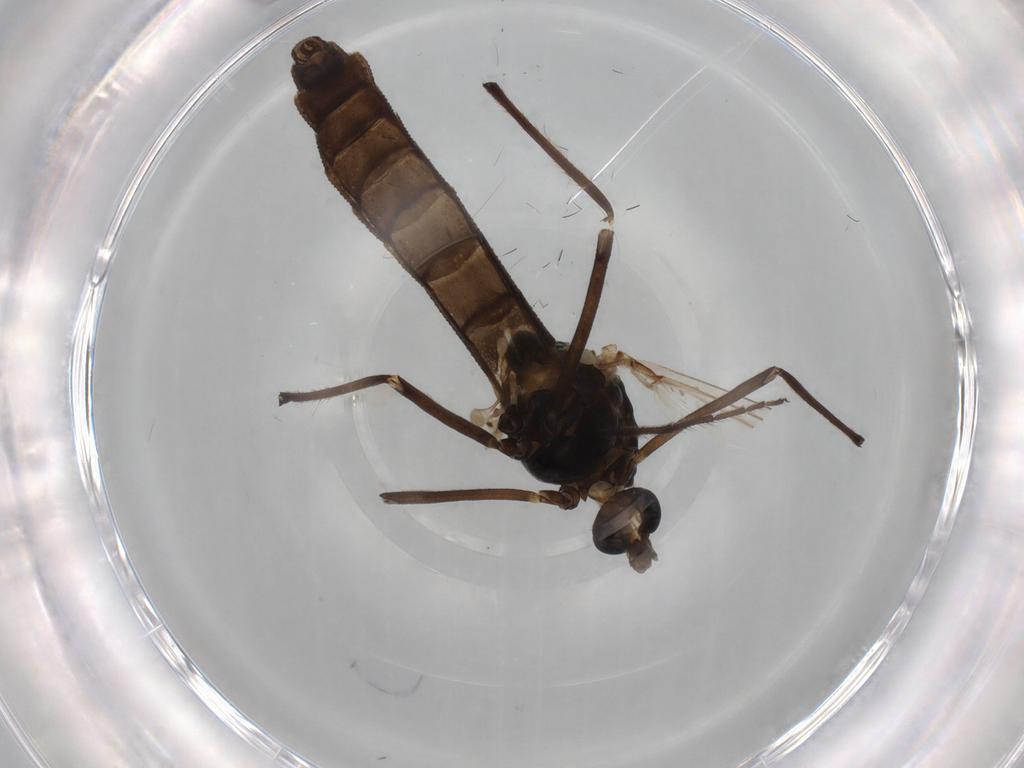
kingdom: Animalia
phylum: Arthropoda
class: Insecta
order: Diptera
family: Chironomidae
